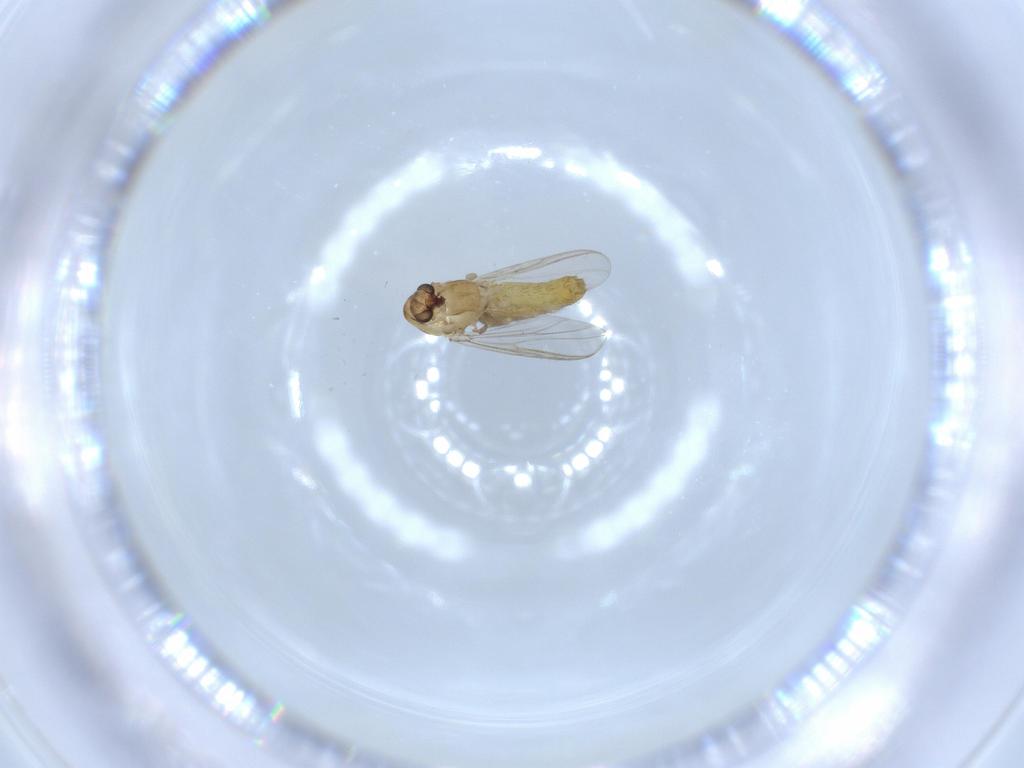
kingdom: Animalia
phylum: Arthropoda
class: Insecta
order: Diptera
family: Chironomidae
